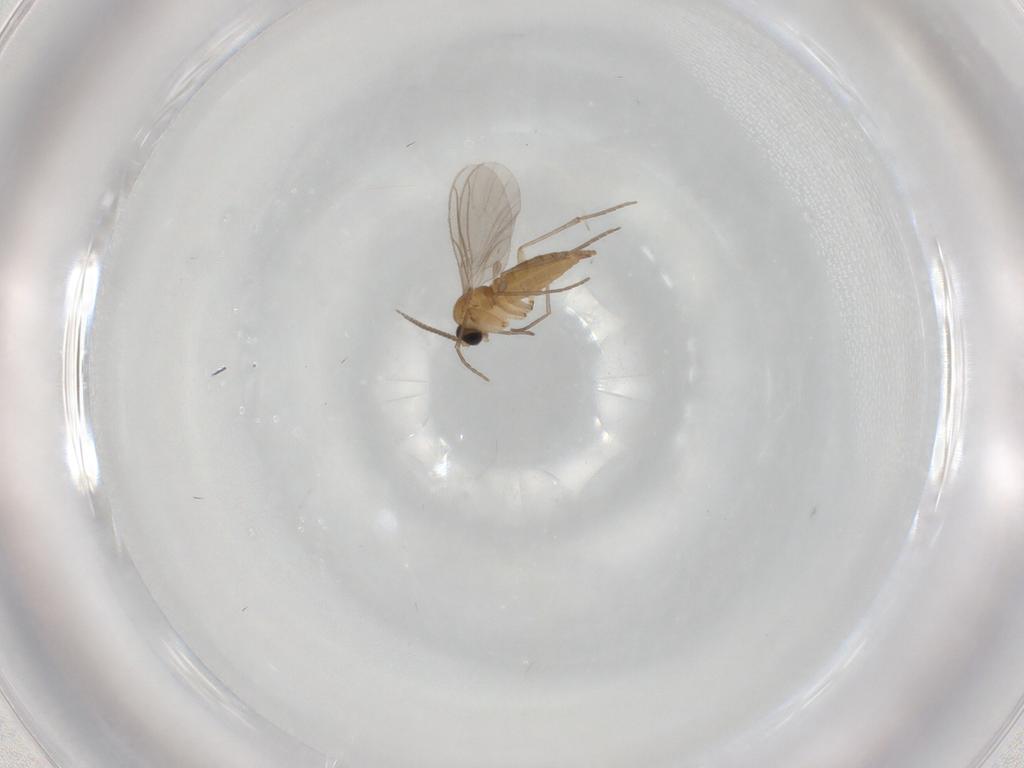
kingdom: Animalia
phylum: Arthropoda
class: Insecta
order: Diptera
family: Sciaridae
